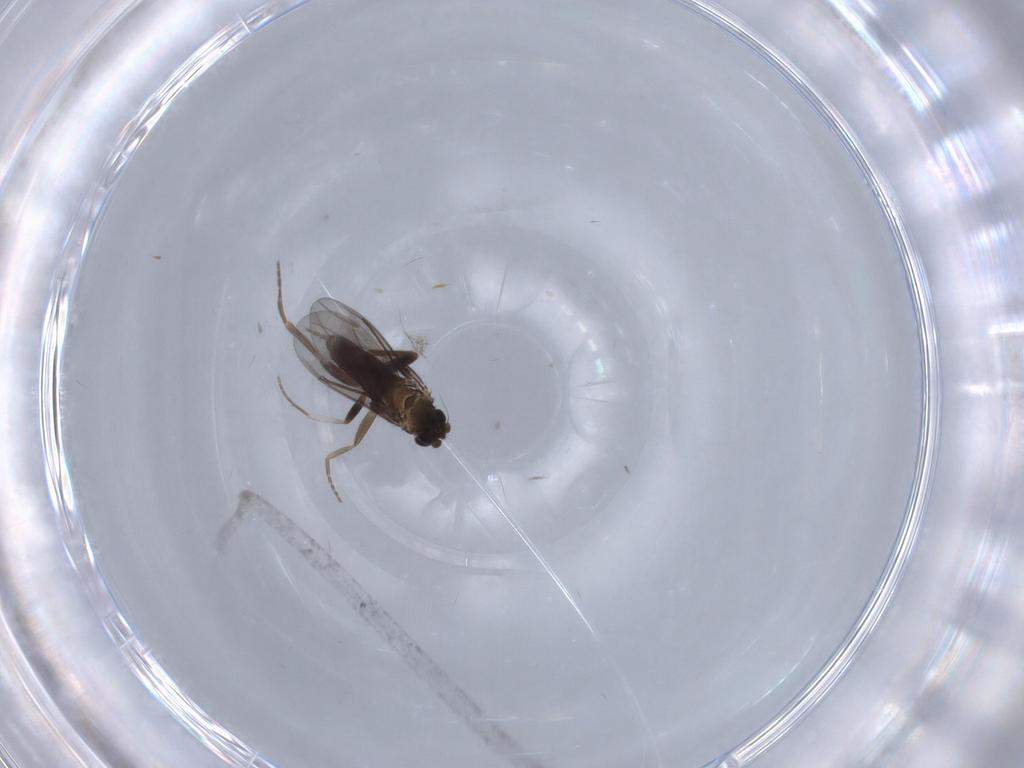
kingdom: Animalia
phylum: Arthropoda
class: Insecta
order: Diptera
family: Phoridae
